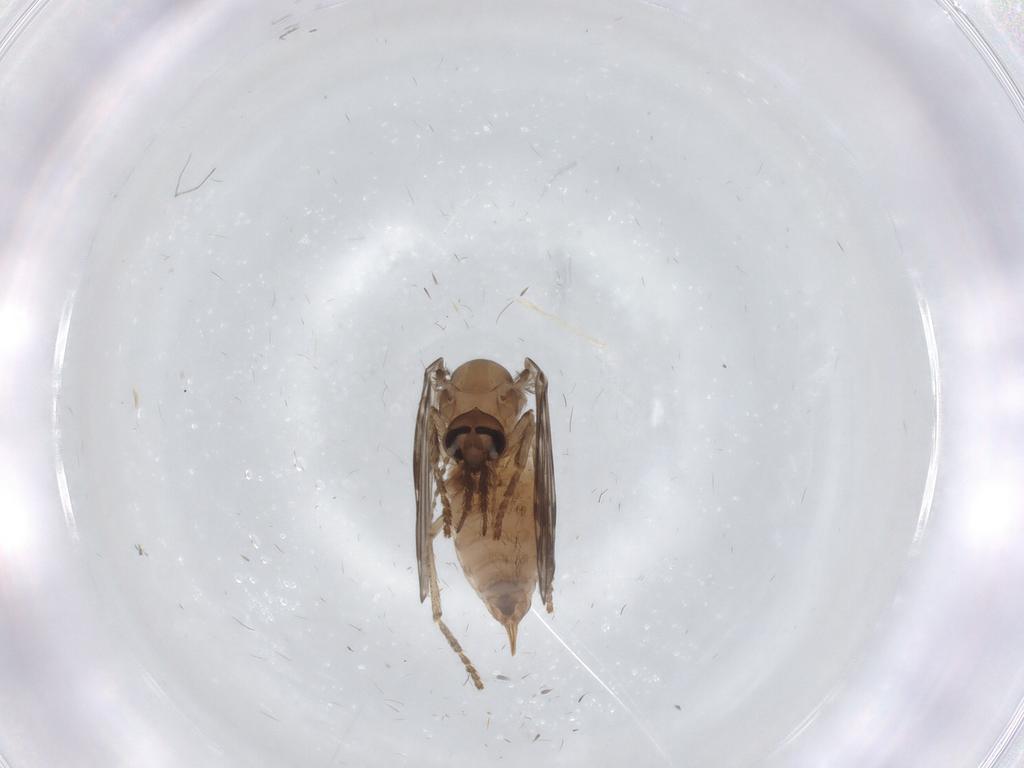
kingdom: Animalia
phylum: Arthropoda
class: Insecta
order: Diptera
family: Psychodidae
